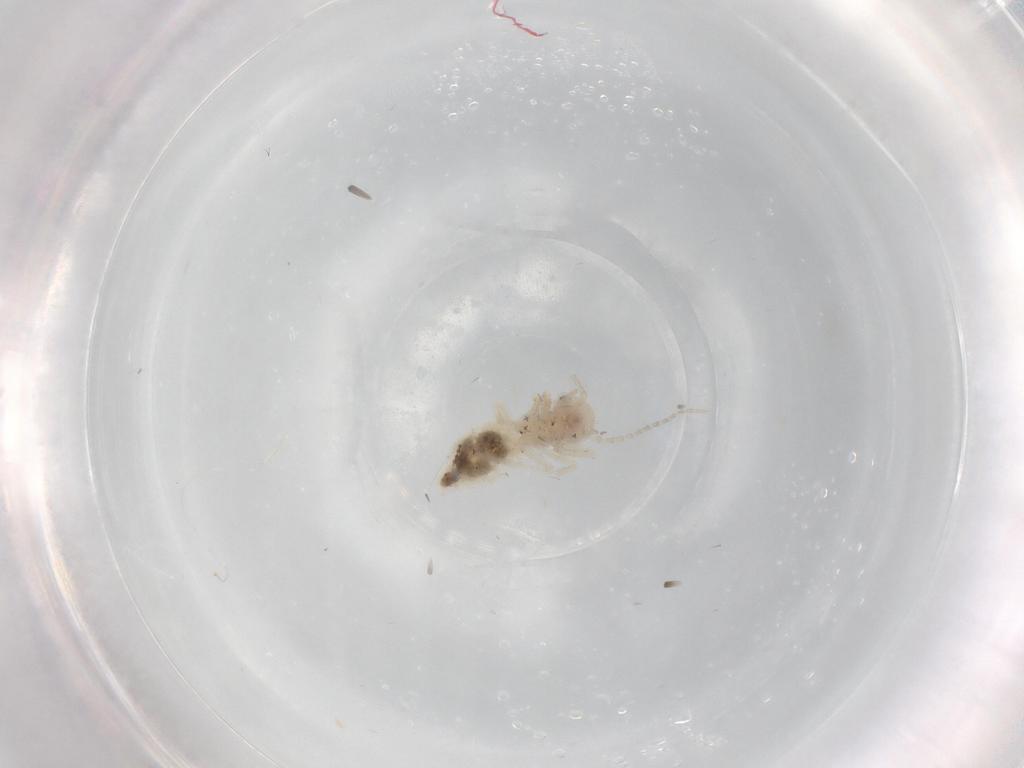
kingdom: Animalia
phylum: Arthropoda
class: Insecta
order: Psocodea
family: Amphipsocidae
